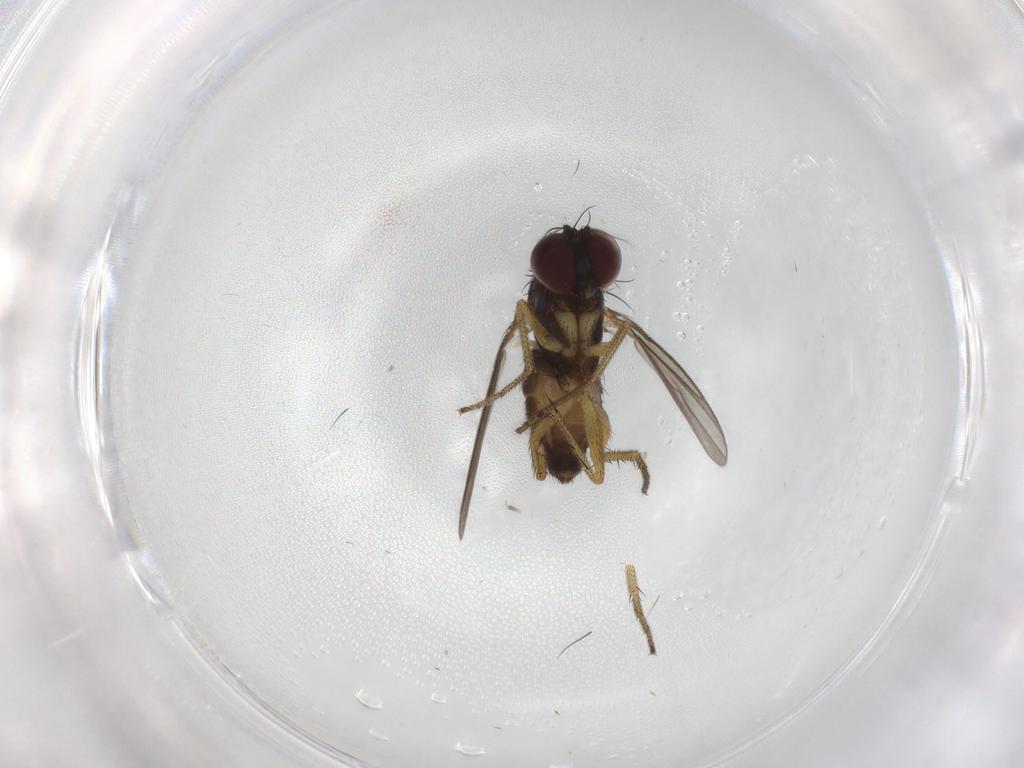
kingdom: Animalia
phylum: Arthropoda
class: Insecta
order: Diptera
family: Dolichopodidae
